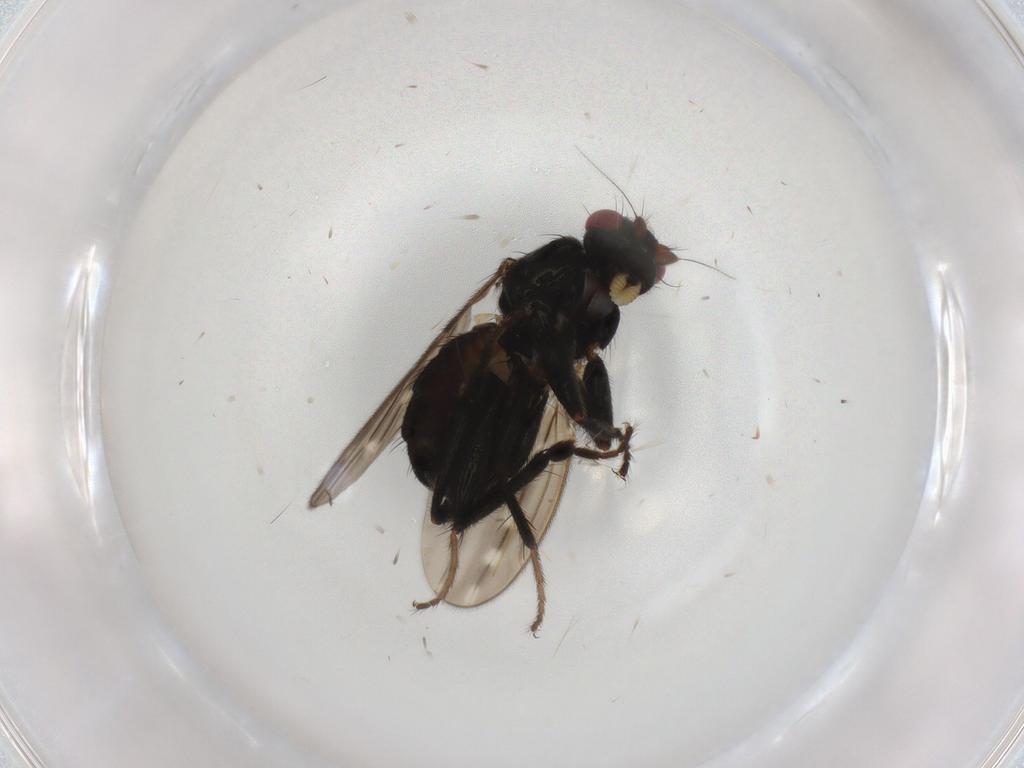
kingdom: Animalia
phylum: Arthropoda
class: Insecta
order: Diptera
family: Sphaeroceridae
